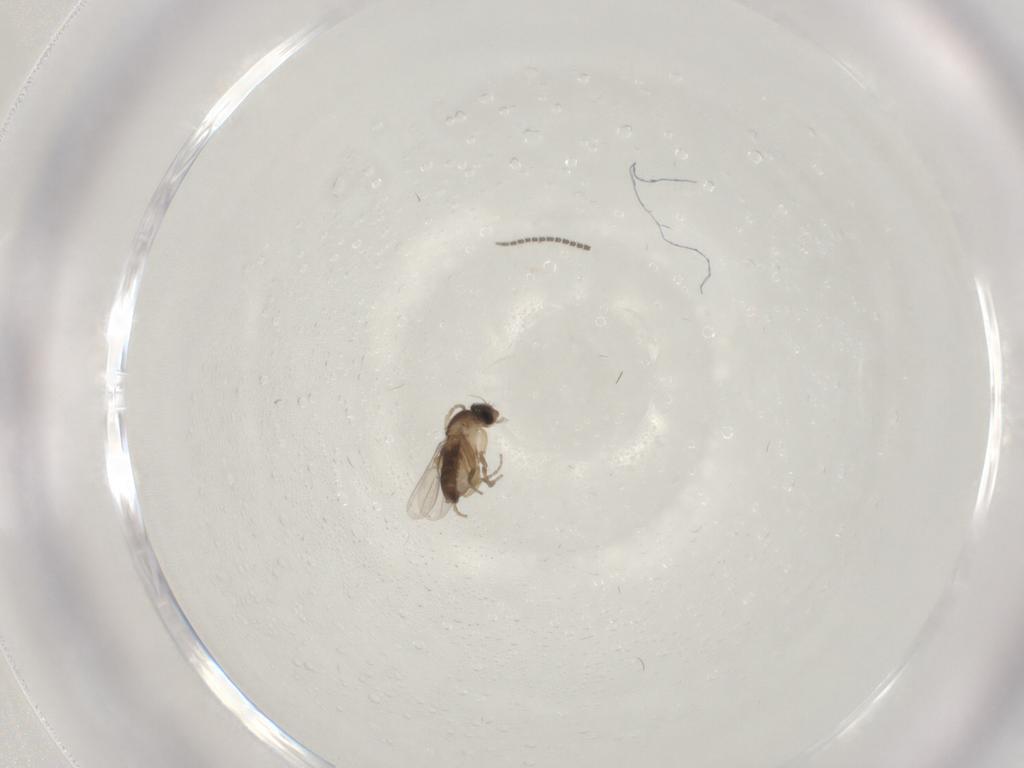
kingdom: Animalia
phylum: Arthropoda
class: Insecta
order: Diptera
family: Sciaridae
